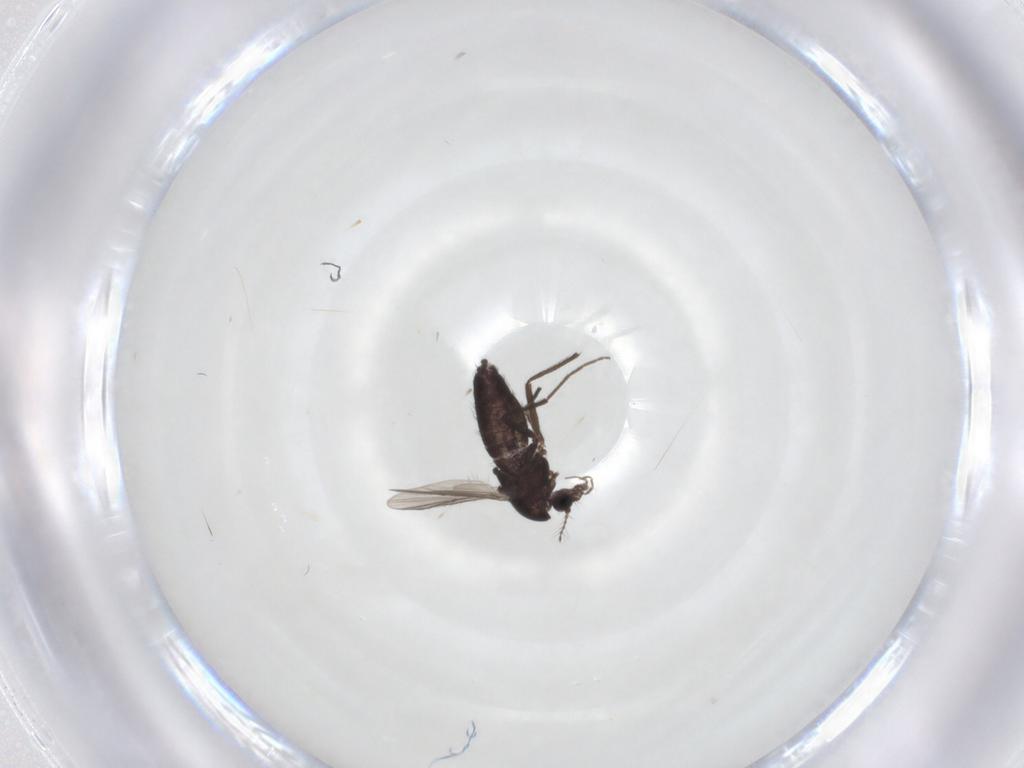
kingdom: Animalia
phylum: Arthropoda
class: Insecta
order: Diptera
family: Chironomidae
